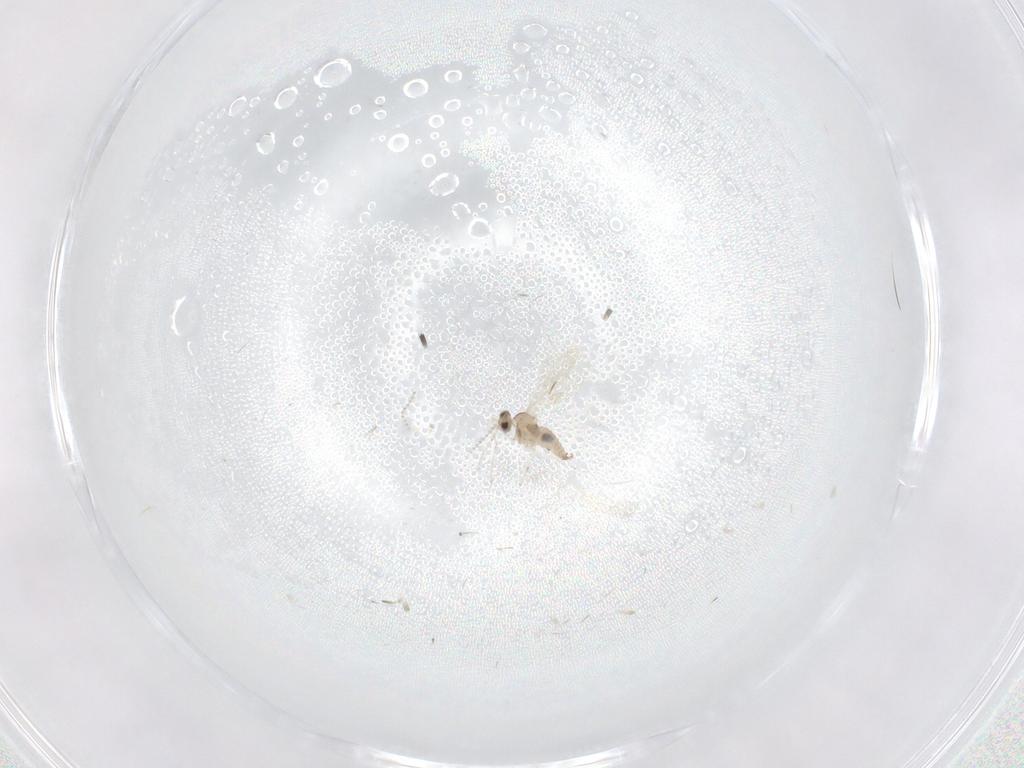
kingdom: Animalia
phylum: Arthropoda
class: Insecta
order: Diptera
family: Cecidomyiidae
